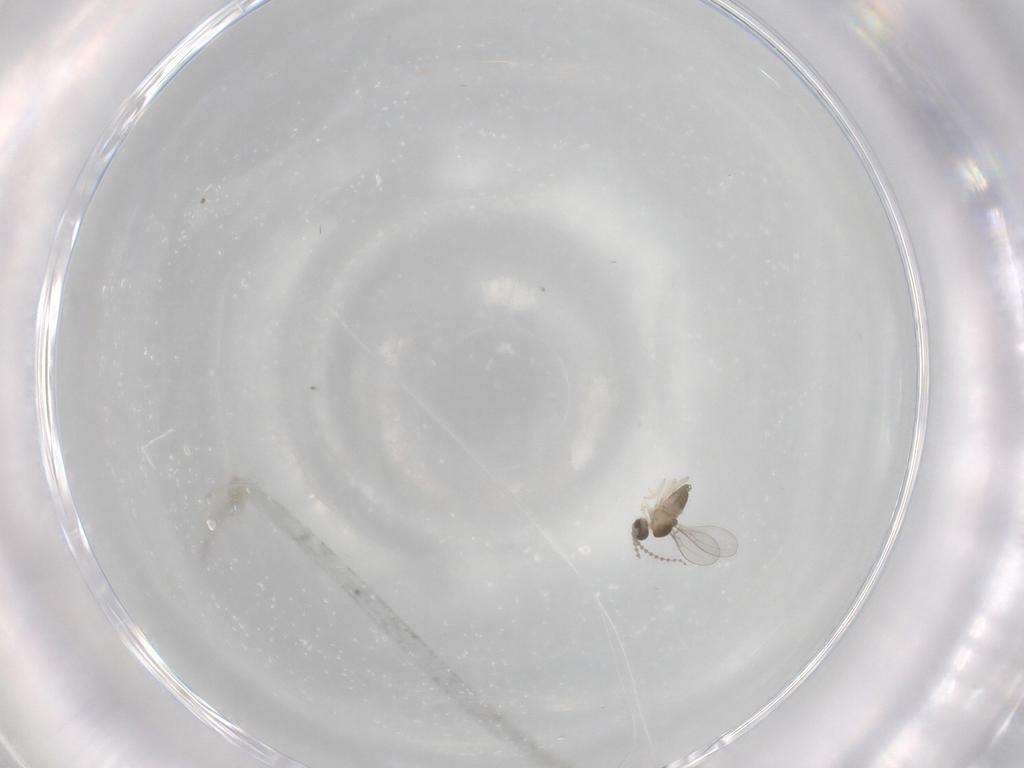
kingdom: Animalia
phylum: Arthropoda
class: Insecta
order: Diptera
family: Cecidomyiidae
